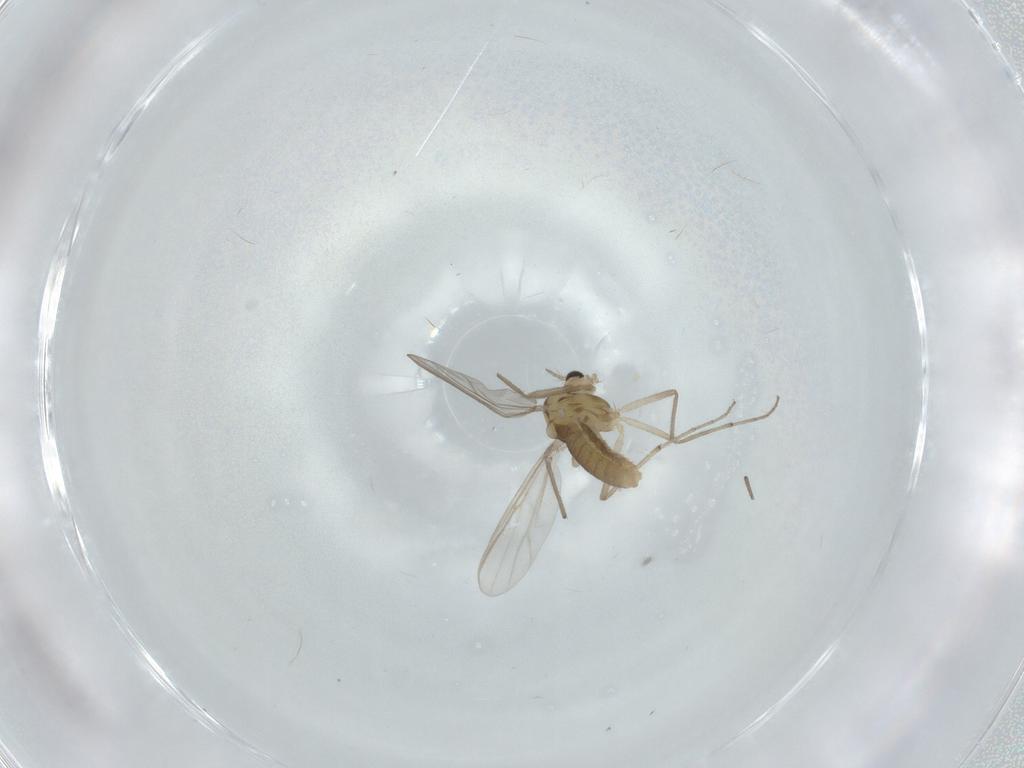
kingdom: Animalia
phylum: Arthropoda
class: Insecta
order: Diptera
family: Chironomidae
